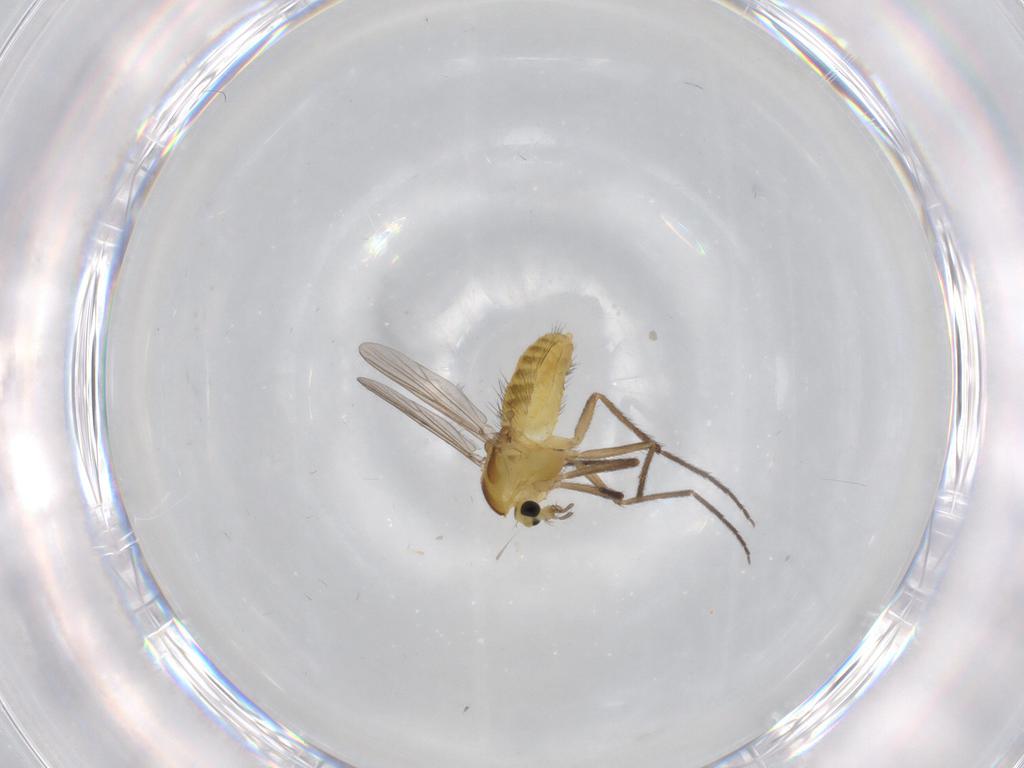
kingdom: Animalia
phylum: Arthropoda
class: Insecta
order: Diptera
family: Chironomidae
